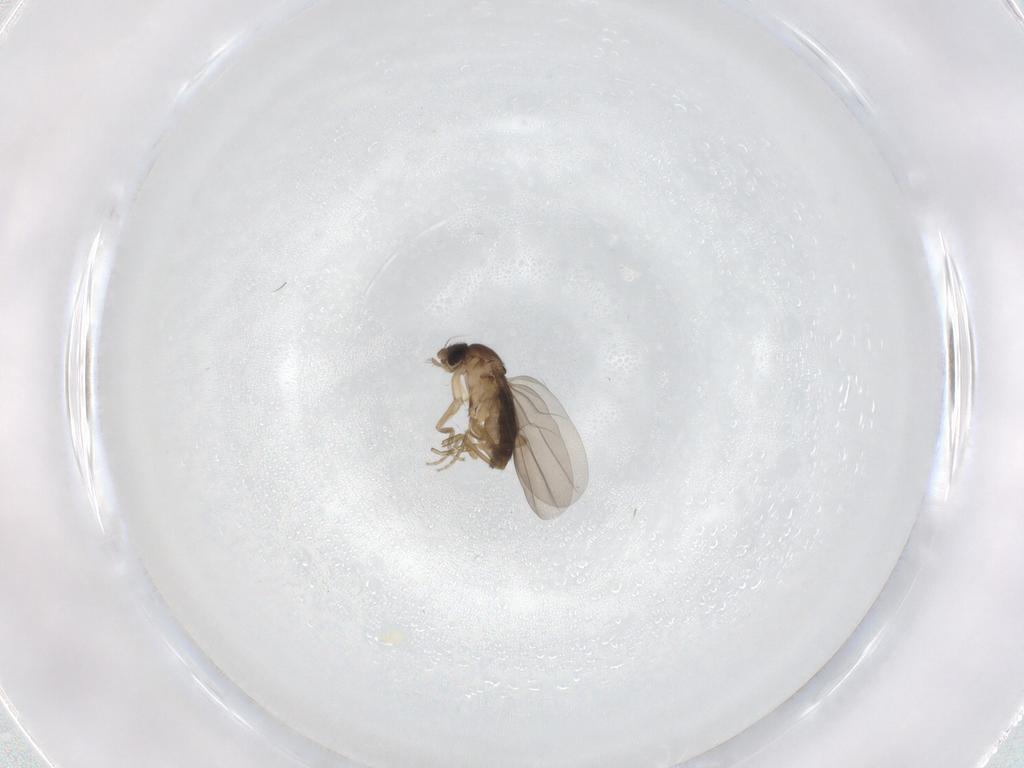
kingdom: Animalia
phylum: Arthropoda
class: Insecta
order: Diptera
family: Phoridae
